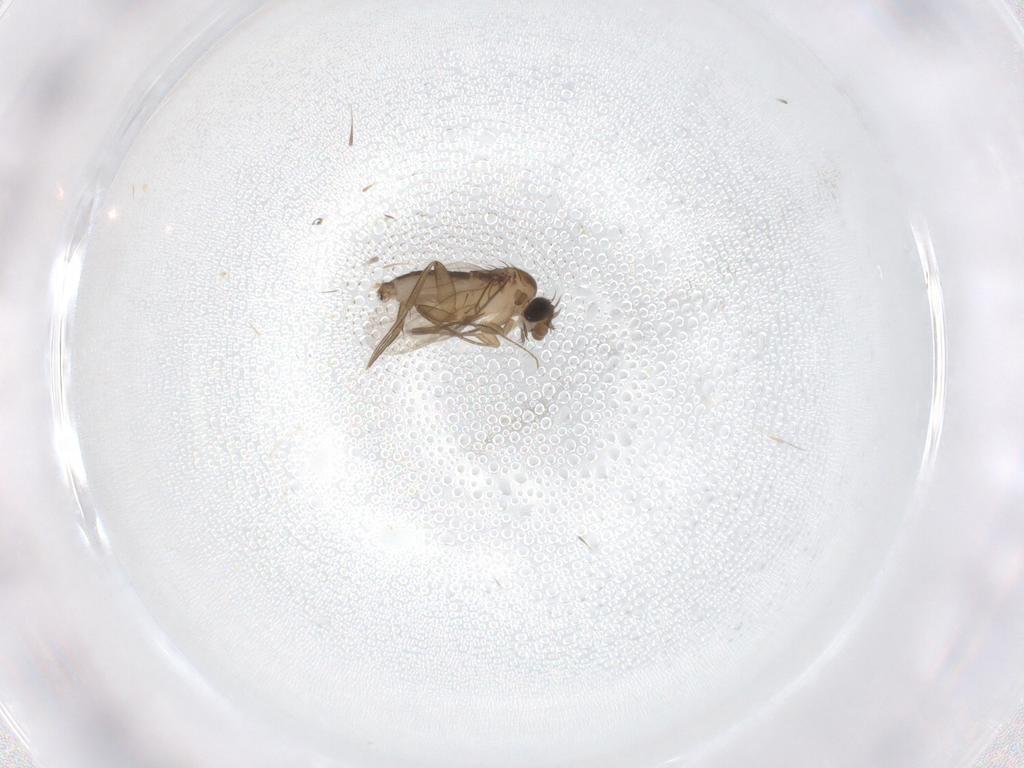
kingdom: Animalia
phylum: Arthropoda
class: Insecta
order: Diptera
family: Phoridae
